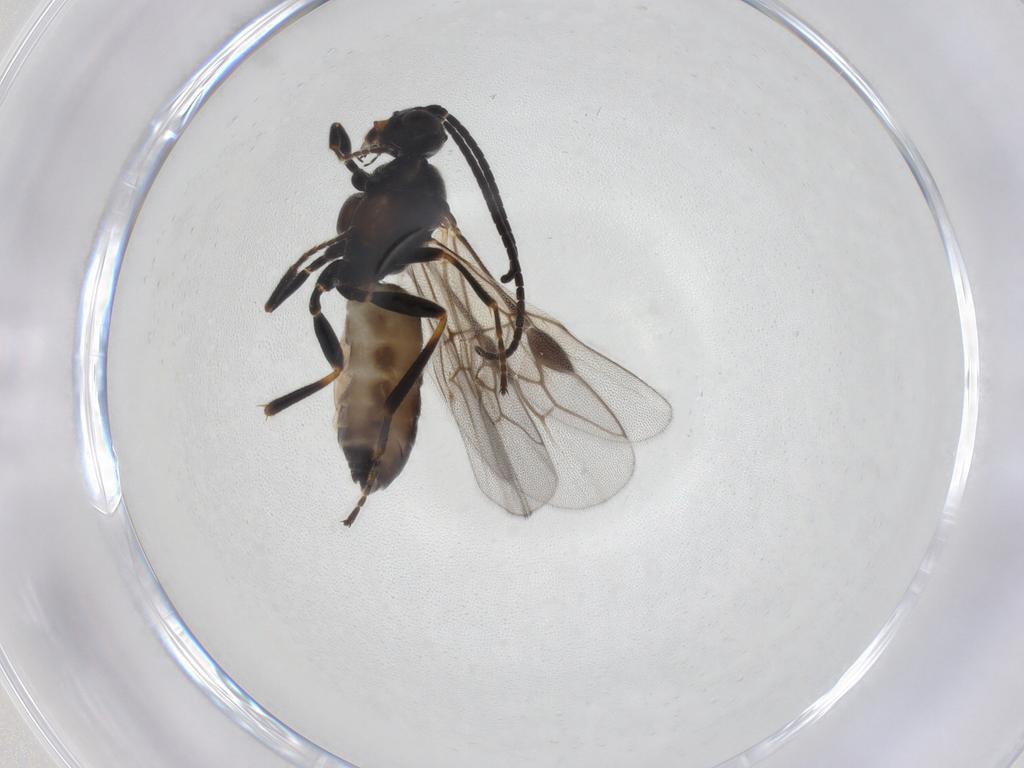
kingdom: Animalia
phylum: Arthropoda
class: Insecta
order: Hymenoptera
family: Braconidae
